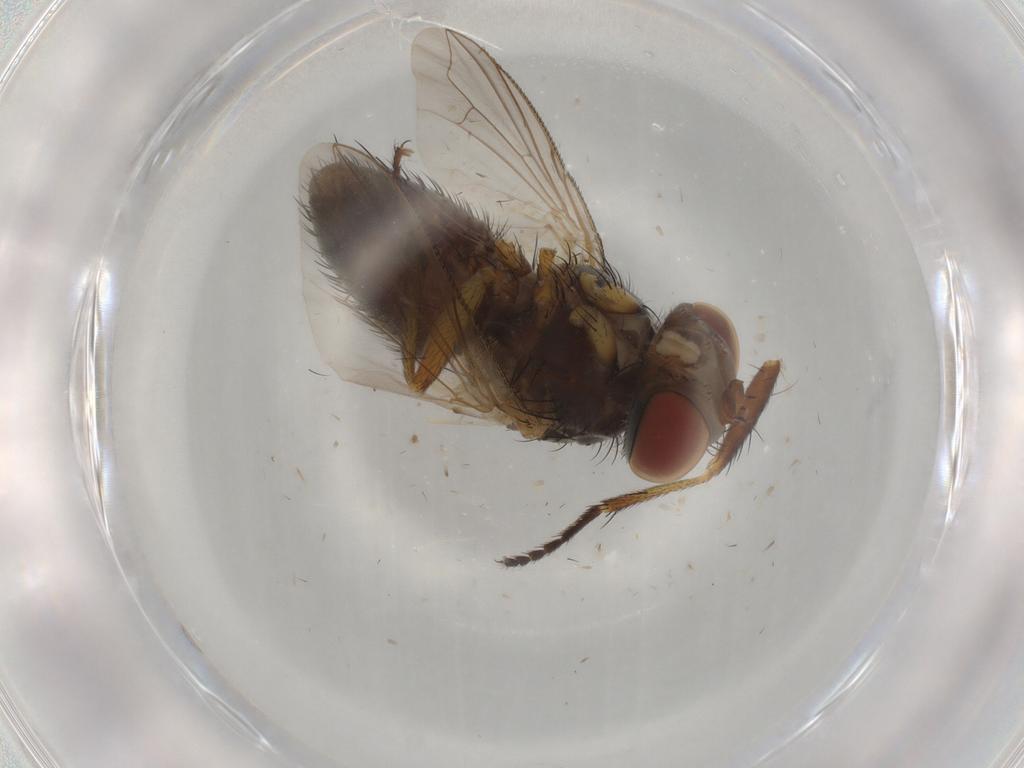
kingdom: Animalia
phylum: Arthropoda
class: Insecta
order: Diptera
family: Tachinidae
